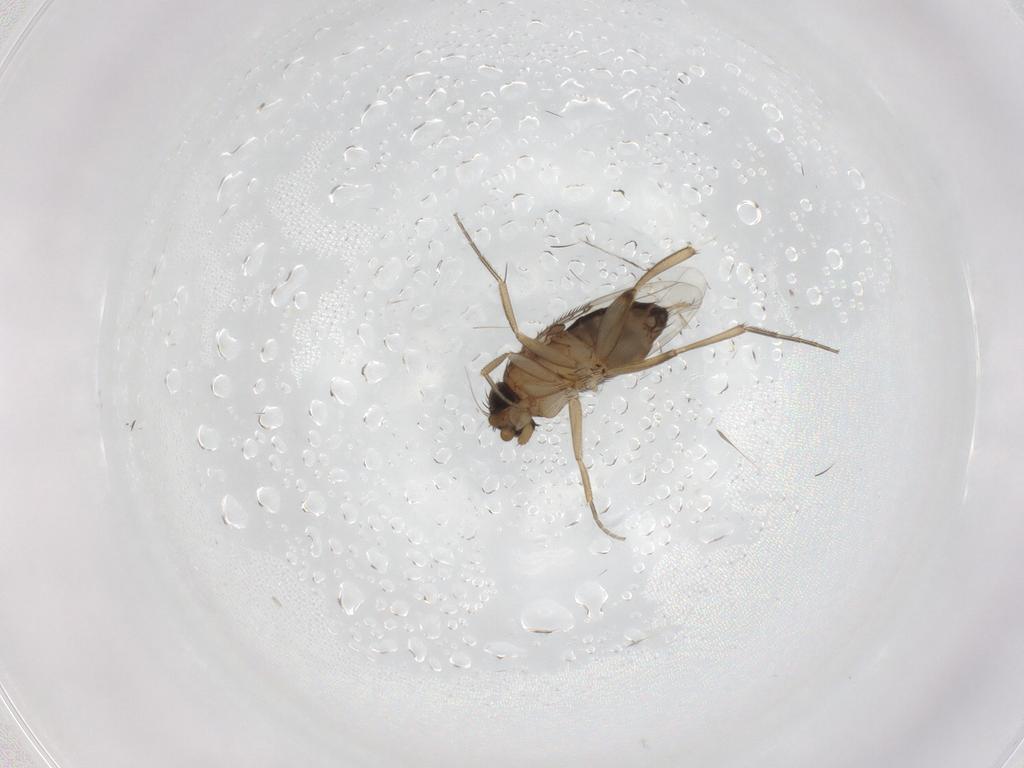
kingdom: Animalia
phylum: Arthropoda
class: Insecta
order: Diptera
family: Phoridae
